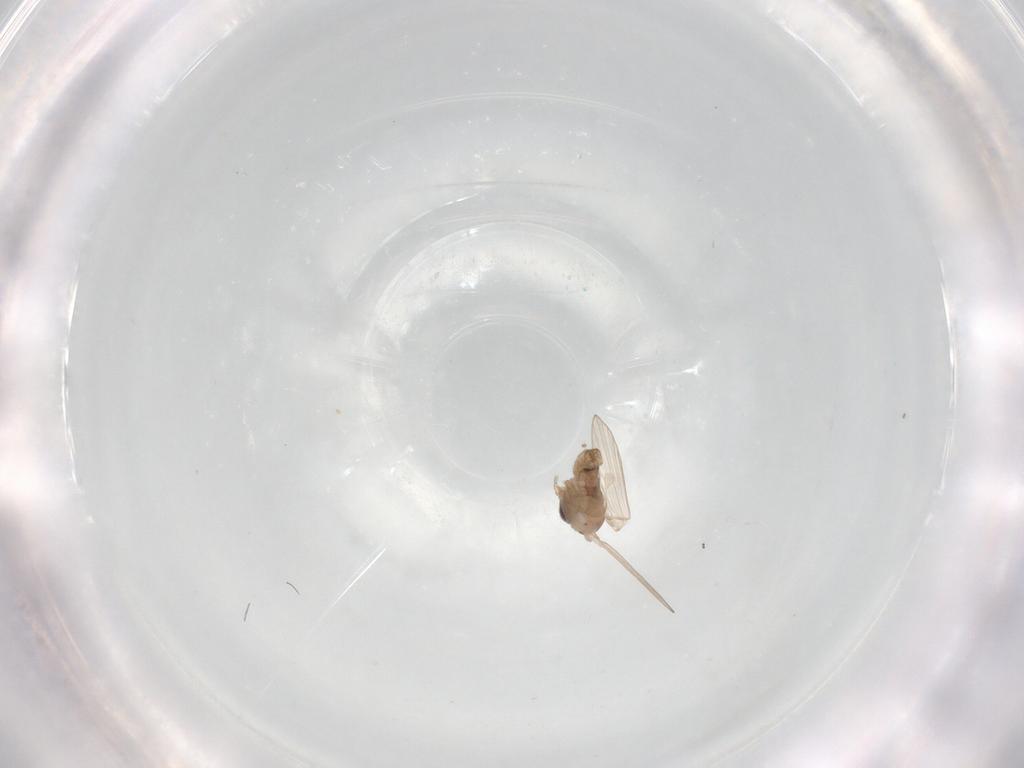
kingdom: Animalia
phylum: Arthropoda
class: Insecta
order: Diptera
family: Psychodidae
